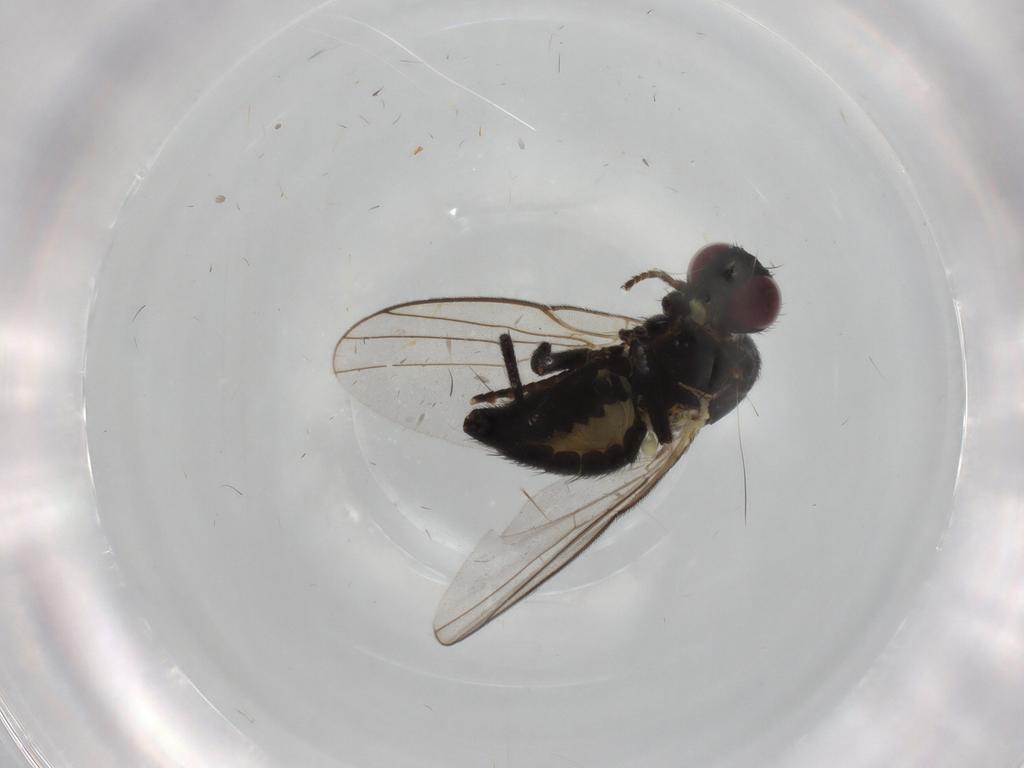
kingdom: Animalia
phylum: Arthropoda
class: Insecta
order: Diptera
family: Agromyzidae
